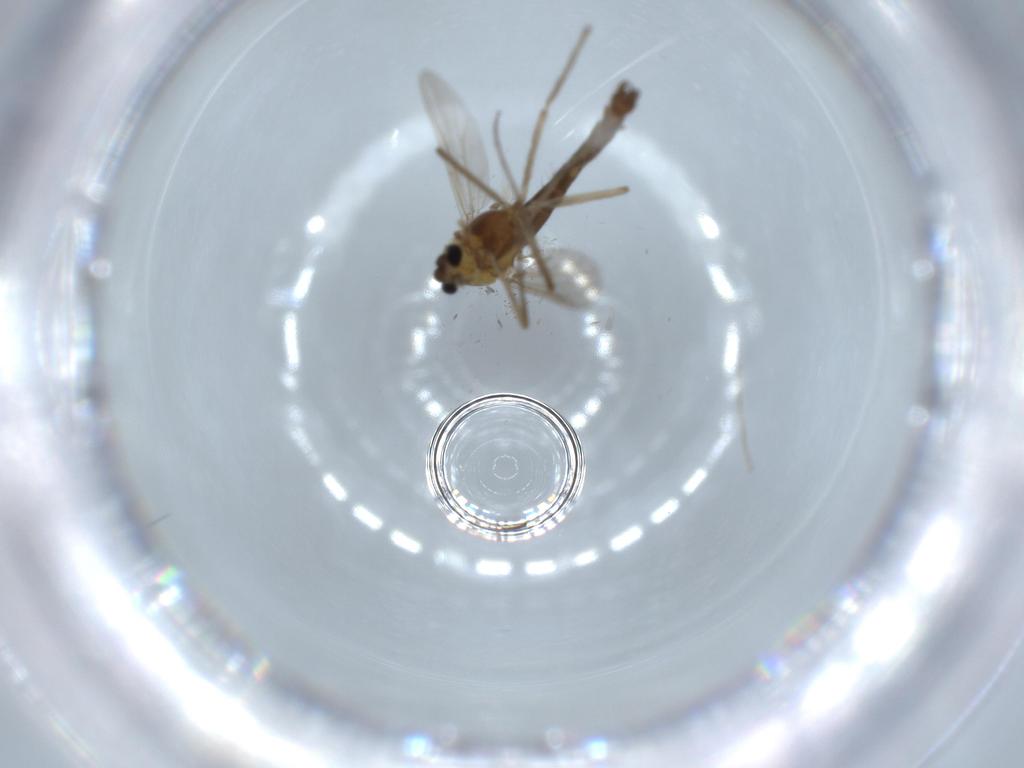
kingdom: Animalia
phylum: Arthropoda
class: Insecta
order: Diptera
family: Chironomidae
